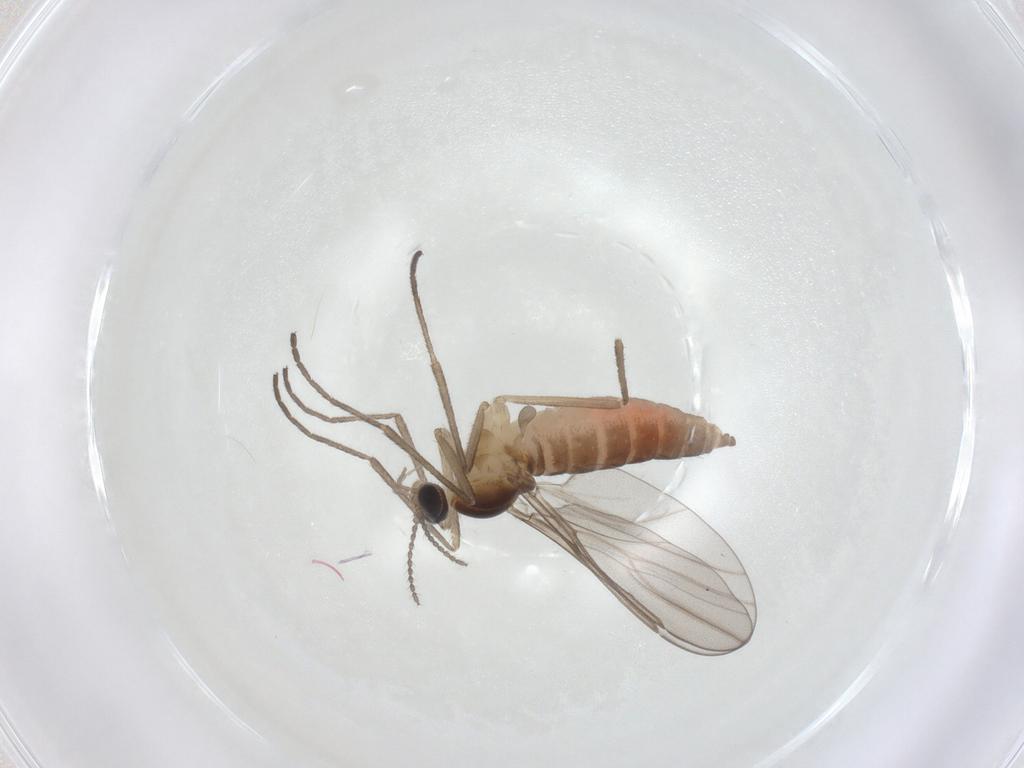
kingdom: Animalia
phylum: Arthropoda
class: Insecta
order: Diptera
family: Cecidomyiidae
